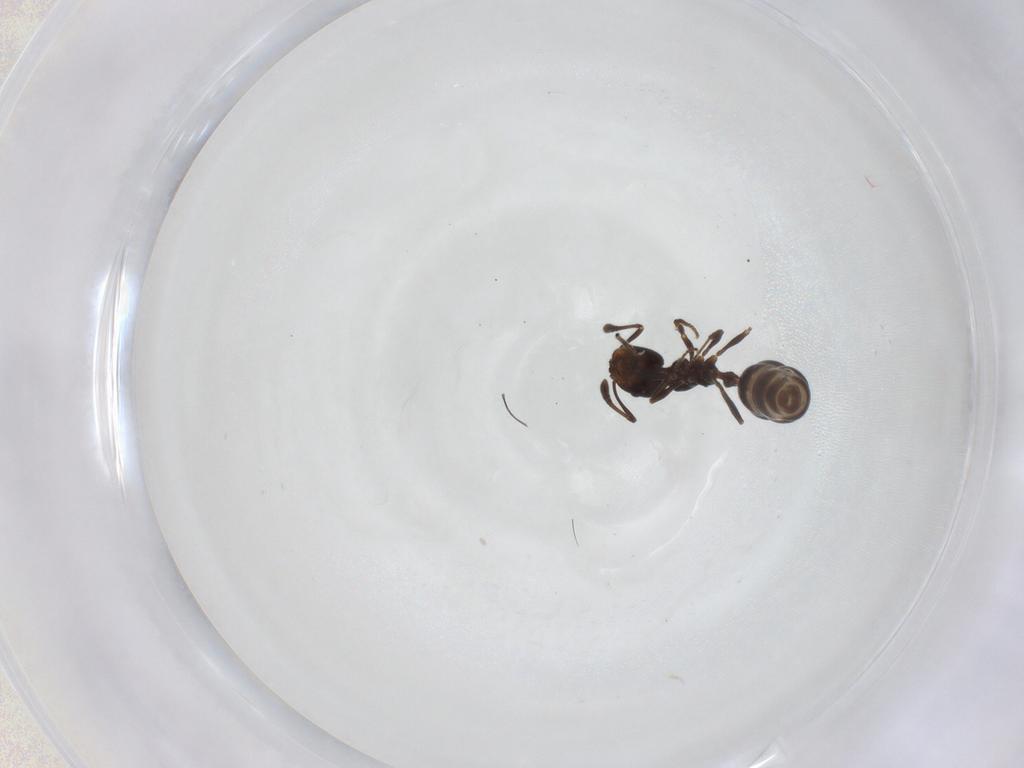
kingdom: Animalia
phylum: Arthropoda
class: Insecta
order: Hymenoptera
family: Formicidae
